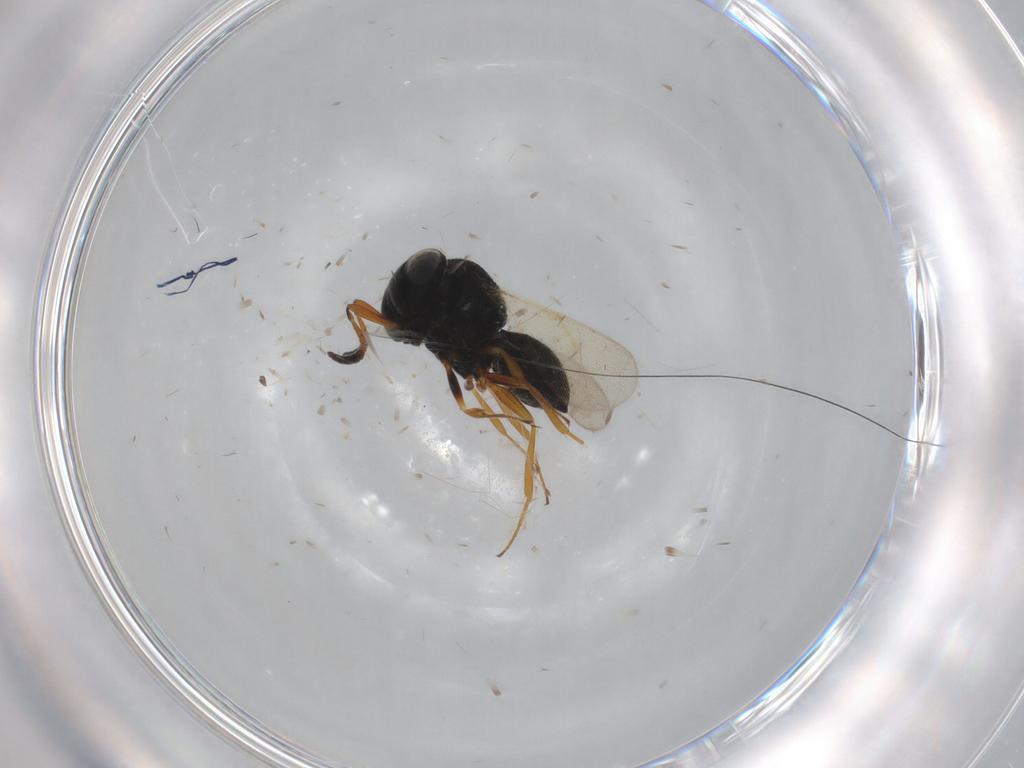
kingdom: Animalia
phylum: Arthropoda
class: Insecta
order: Hymenoptera
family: Scelionidae
